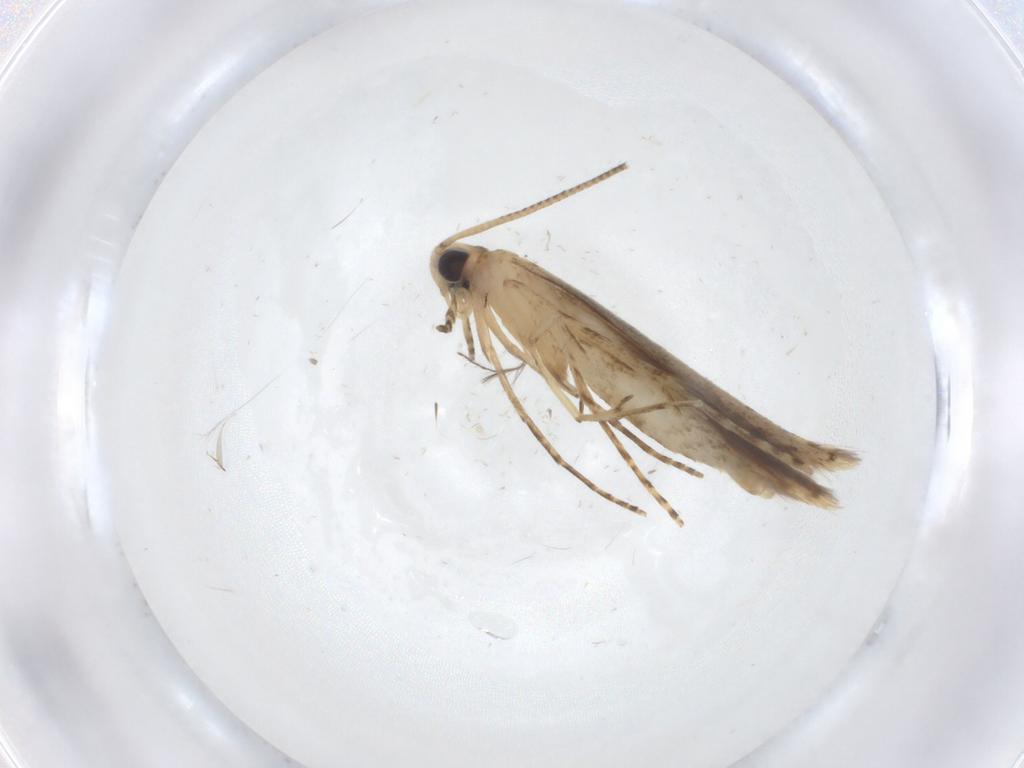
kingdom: Animalia
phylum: Arthropoda
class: Insecta
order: Lepidoptera
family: Batrachedridae
